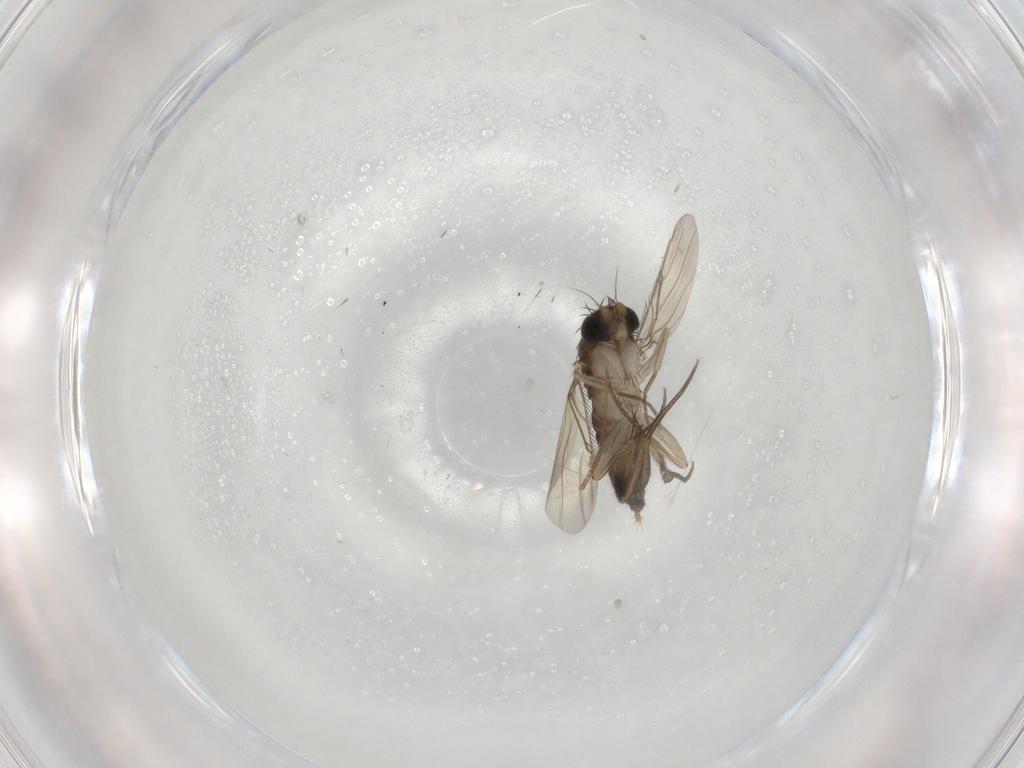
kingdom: Animalia
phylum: Arthropoda
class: Insecta
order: Diptera
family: Phoridae
